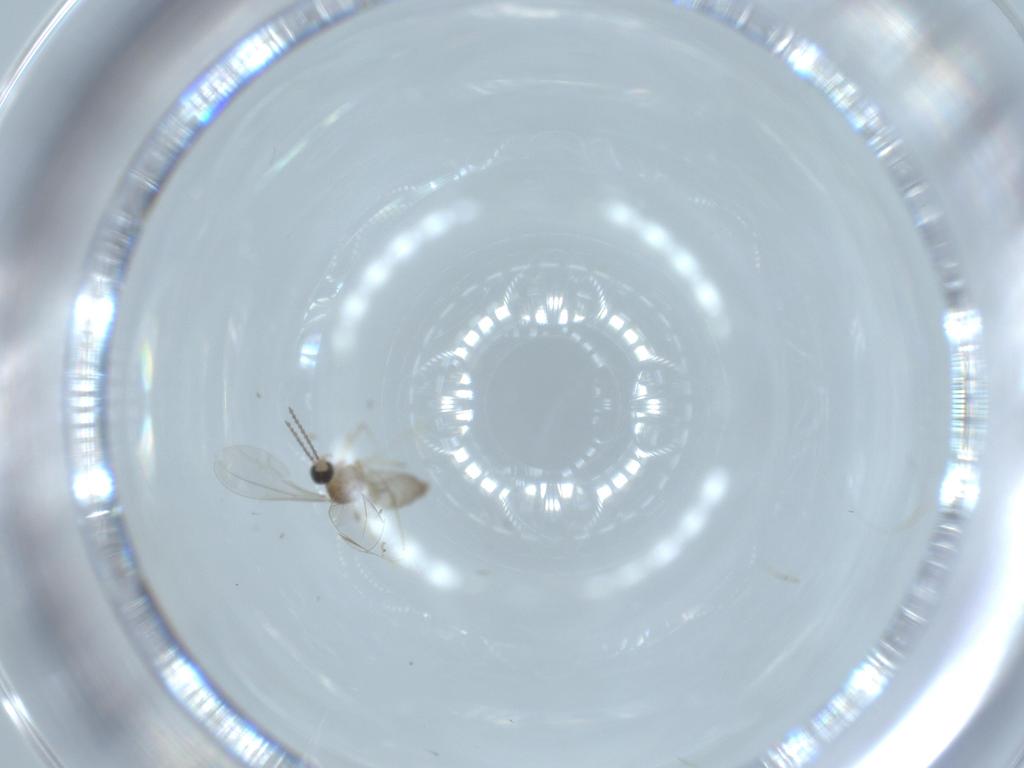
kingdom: Animalia
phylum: Arthropoda
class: Insecta
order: Diptera
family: Cecidomyiidae
